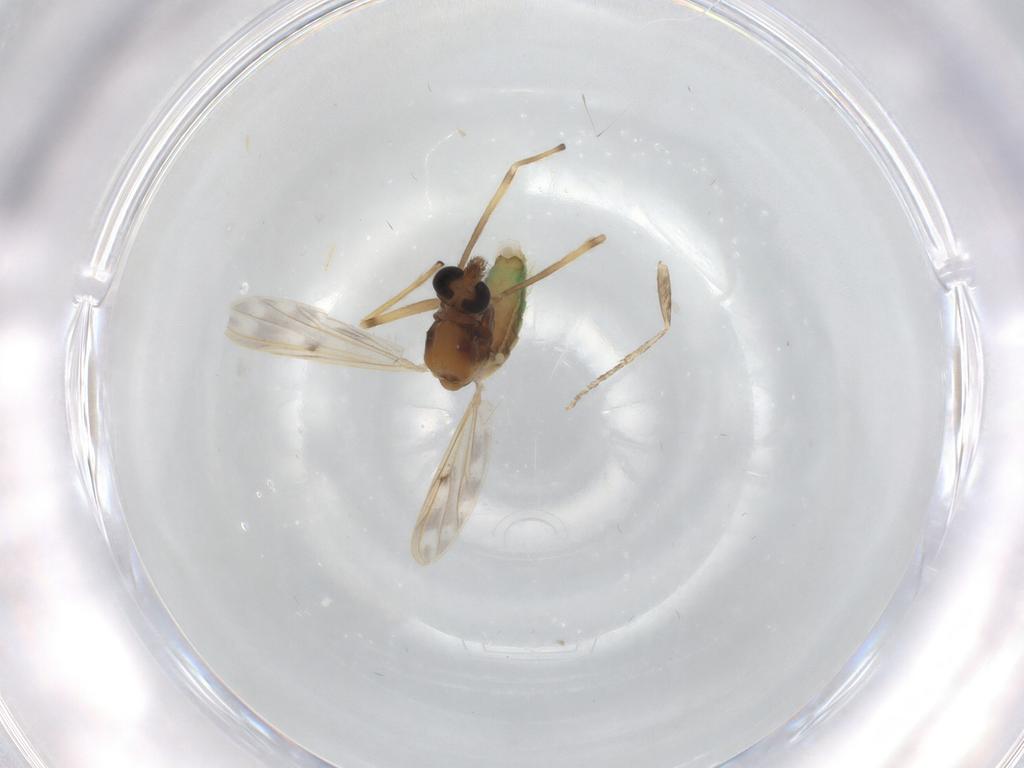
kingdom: Animalia
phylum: Arthropoda
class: Insecta
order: Diptera
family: Chironomidae
